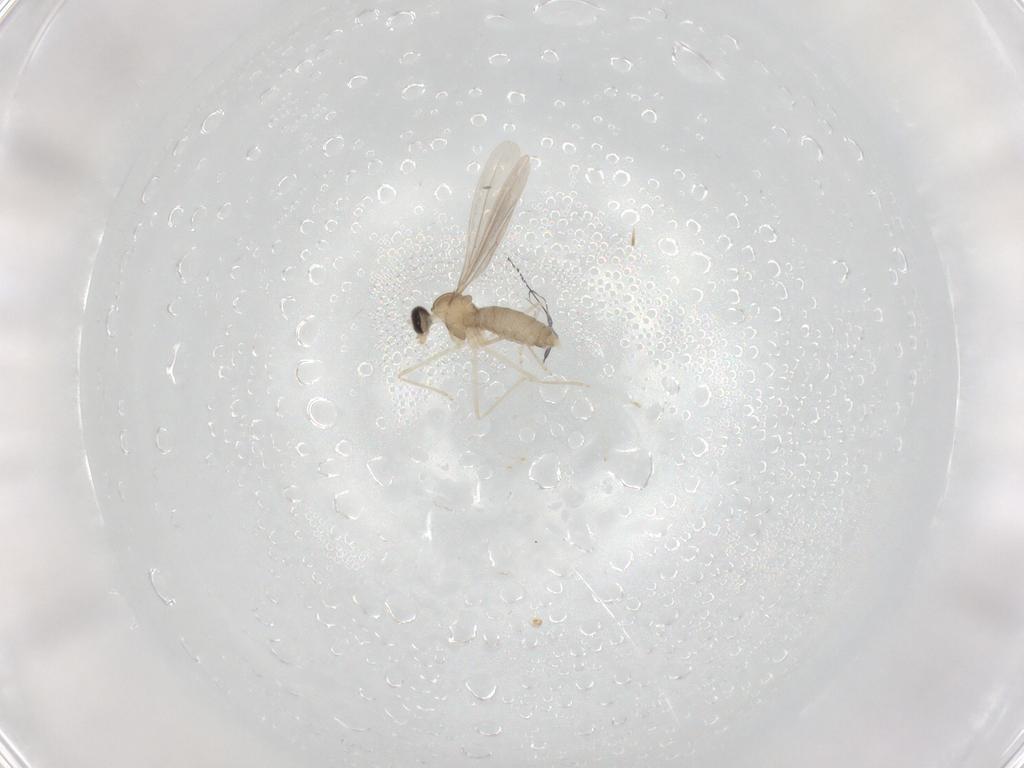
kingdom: Animalia
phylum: Arthropoda
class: Insecta
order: Diptera
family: Cecidomyiidae
